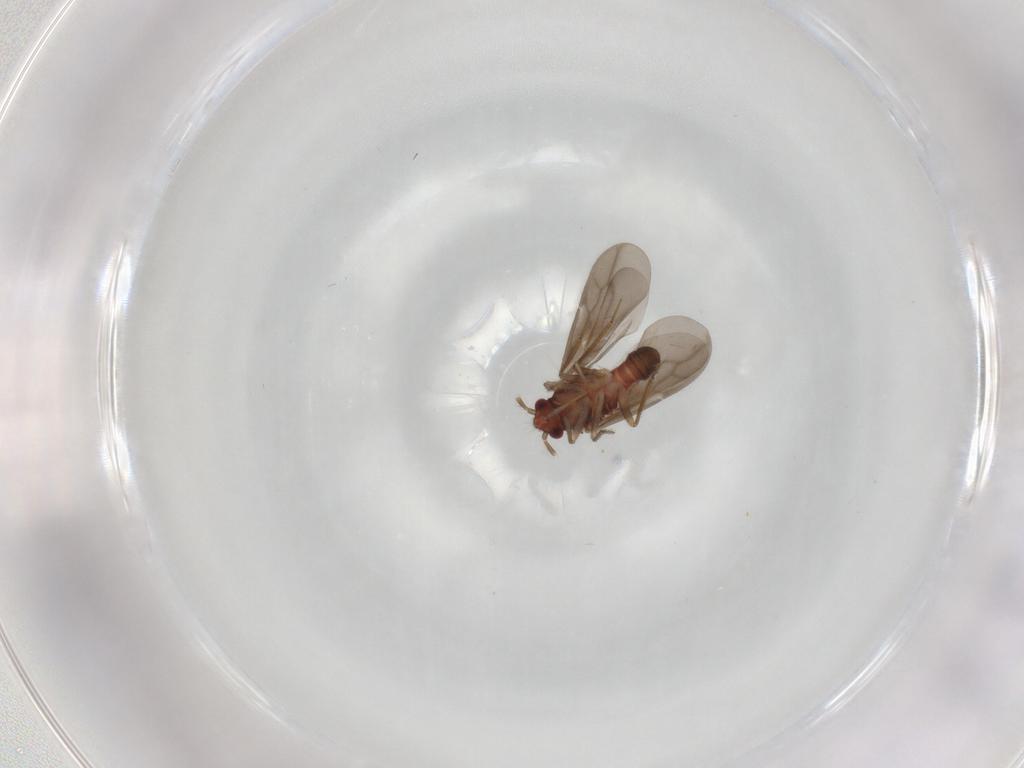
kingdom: Animalia
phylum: Arthropoda
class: Insecta
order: Hemiptera
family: Ceratocombidae
